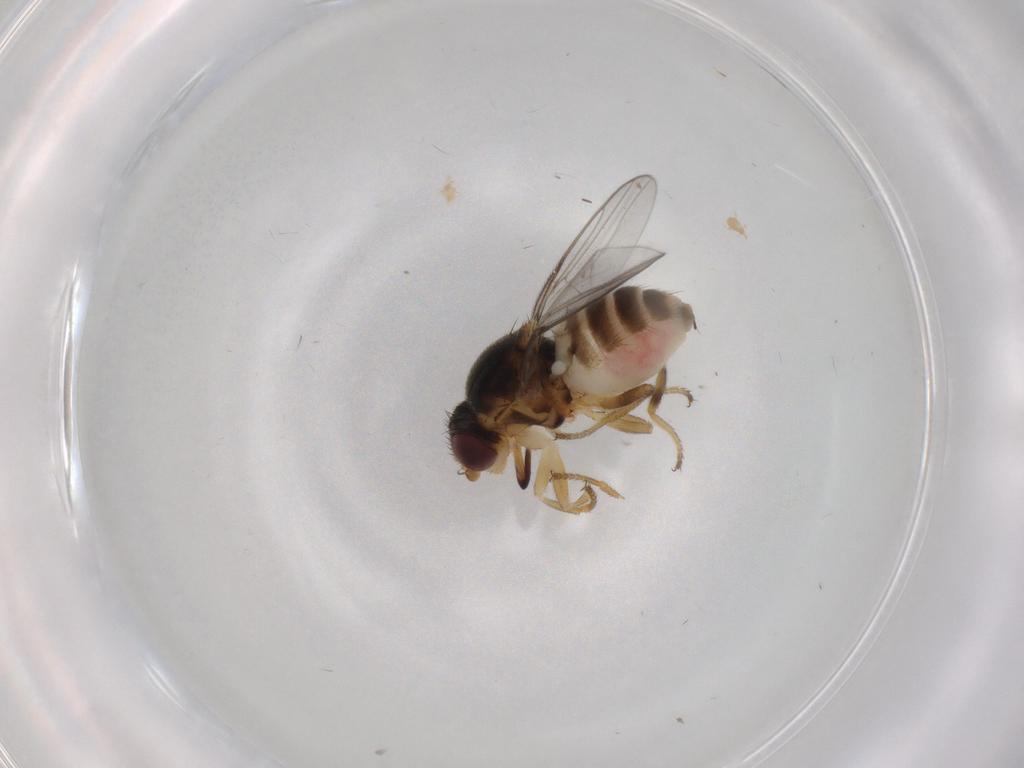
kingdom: Animalia
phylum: Arthropoda
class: Insecta
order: Diptera
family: Chloropidae
